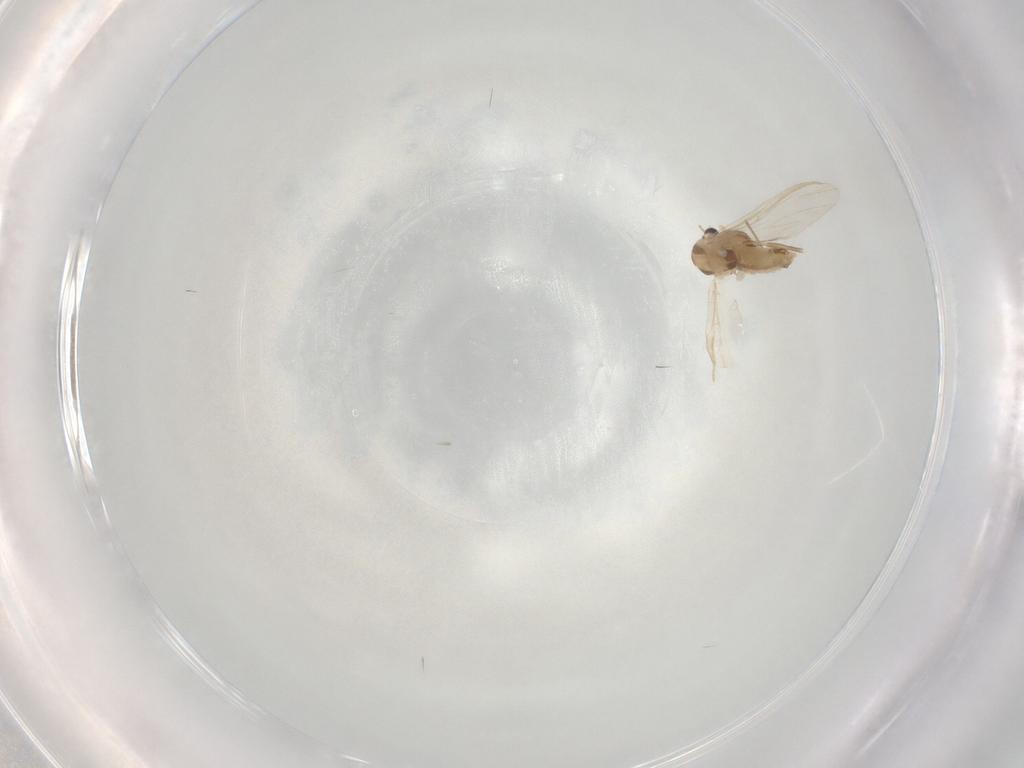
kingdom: Animalia
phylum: Arthropoda
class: Insecta
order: Diptera
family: Chironomidae
